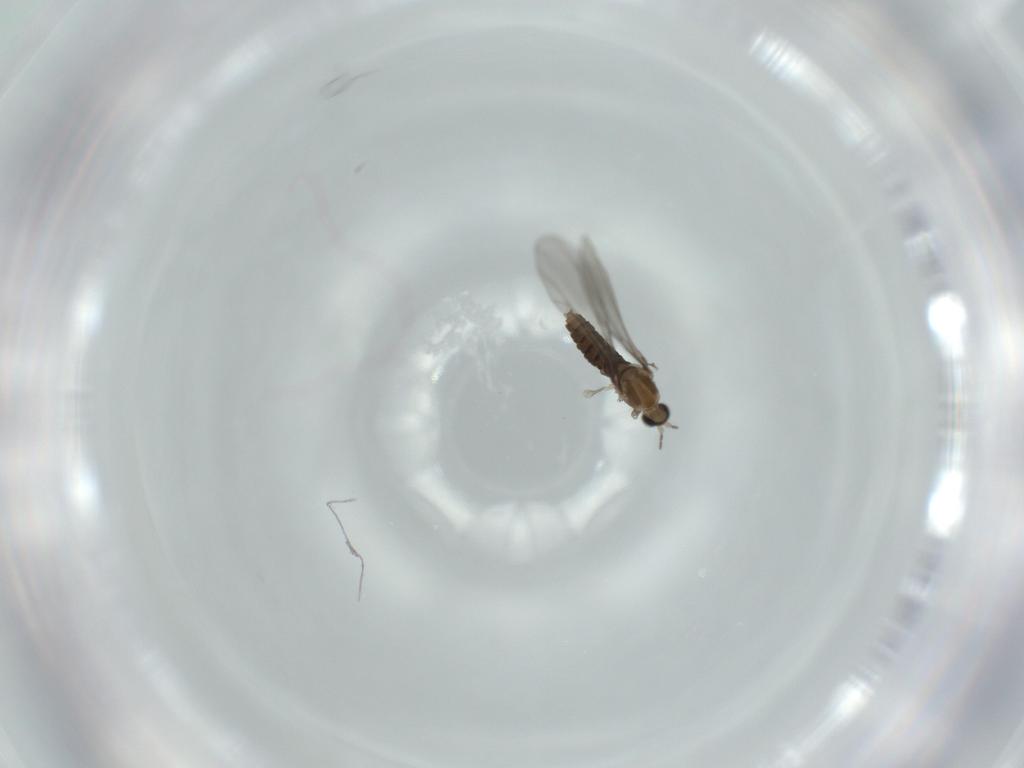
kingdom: Animalia
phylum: Arthropoda
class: Insecta
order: Diptera
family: Cecidomyiidae
